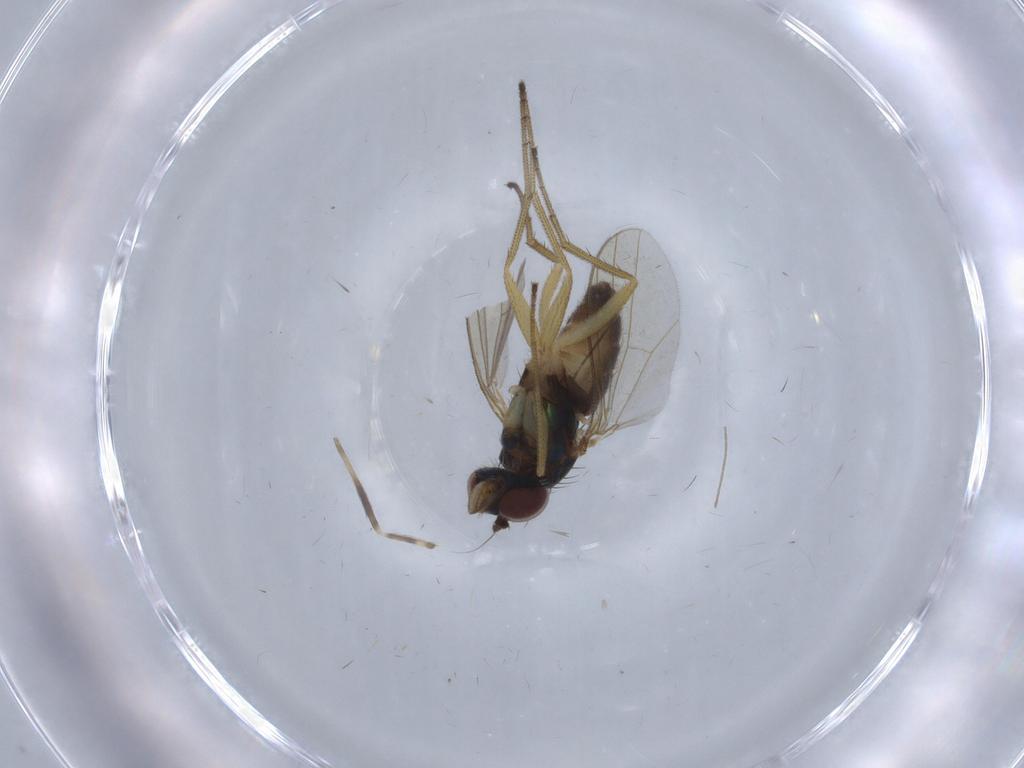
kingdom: Animalia
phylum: Arthropoda
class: Insecta
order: Diptera
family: Dolichopodidae
